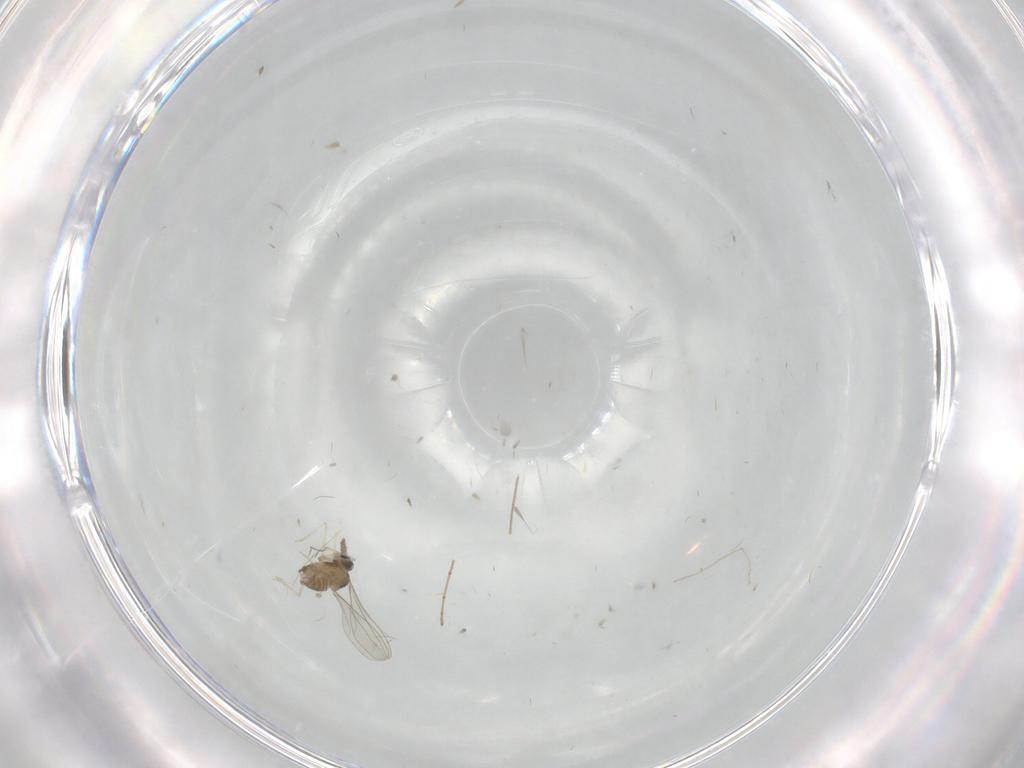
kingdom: Animalia
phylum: Arthropoda
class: Insecta
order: Diptera
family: Cecidomyiidae
